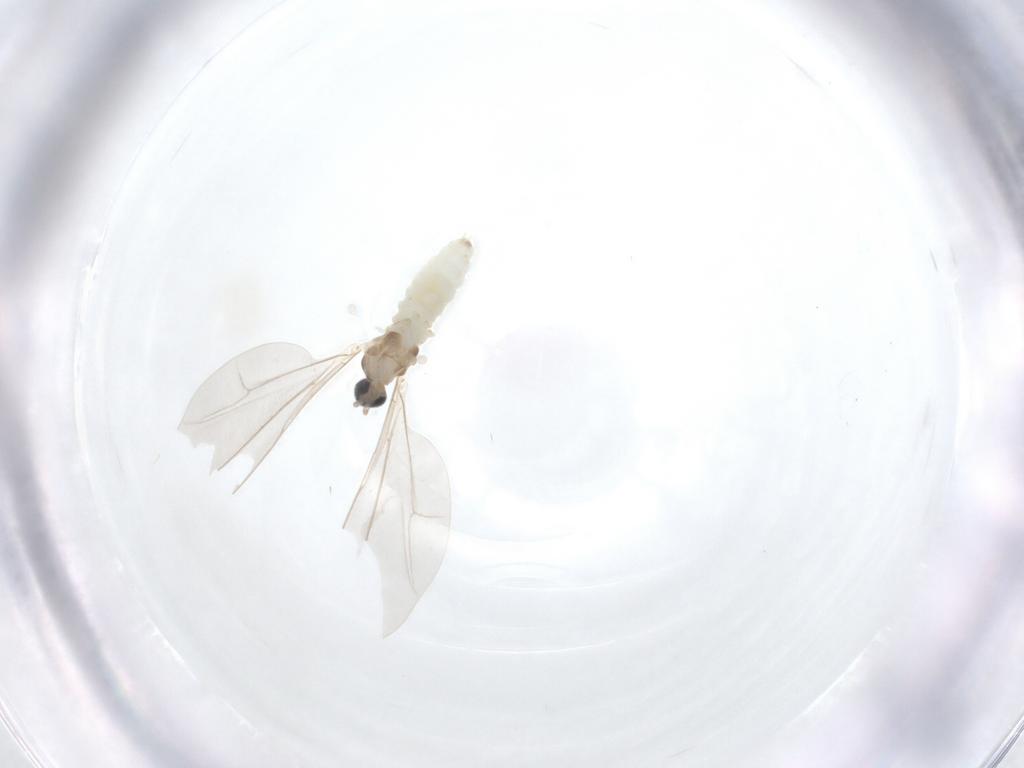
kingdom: Animalia
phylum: Arthropoda
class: Insecta
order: Diptera
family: Cecidomyiidae
